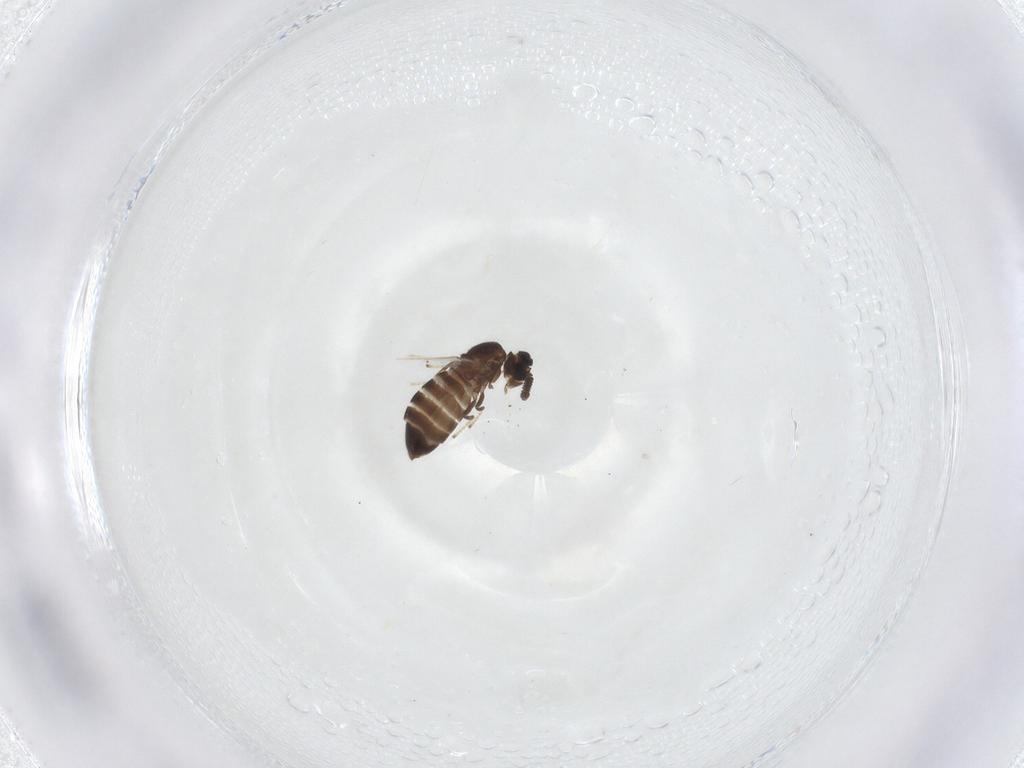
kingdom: Animalia
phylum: Arthropoda
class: Insecta
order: Diptera
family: Scatopsidae
